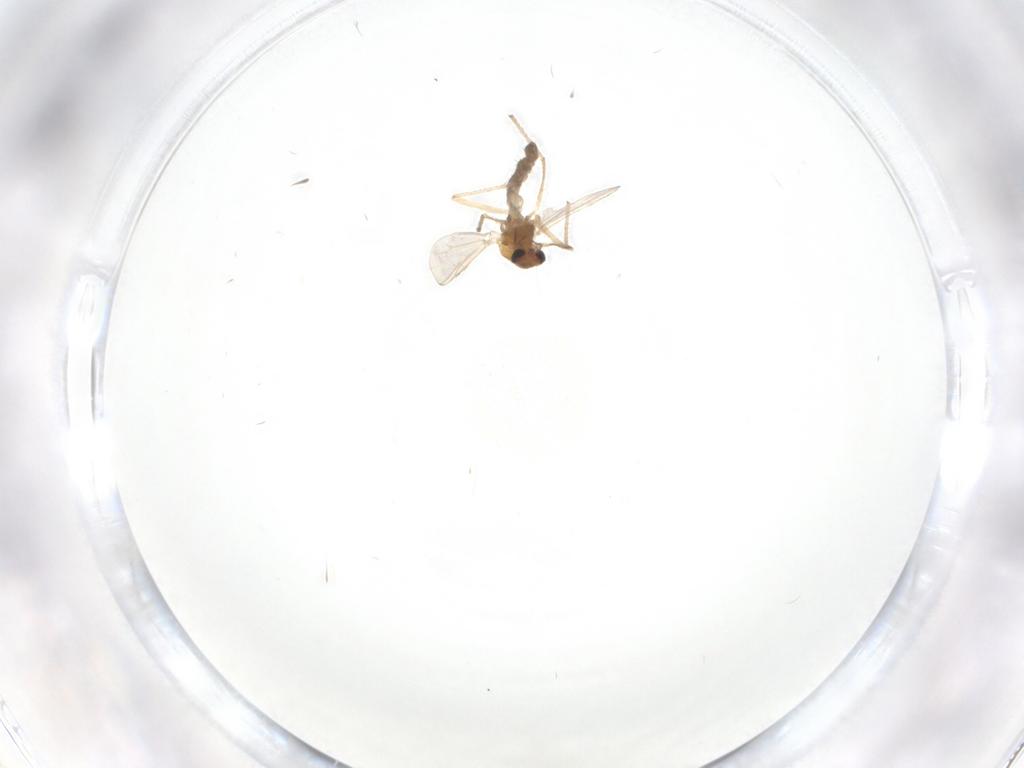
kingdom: Animalia
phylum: Arthropoda
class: Insecta
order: Diptera
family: Chironomidae
